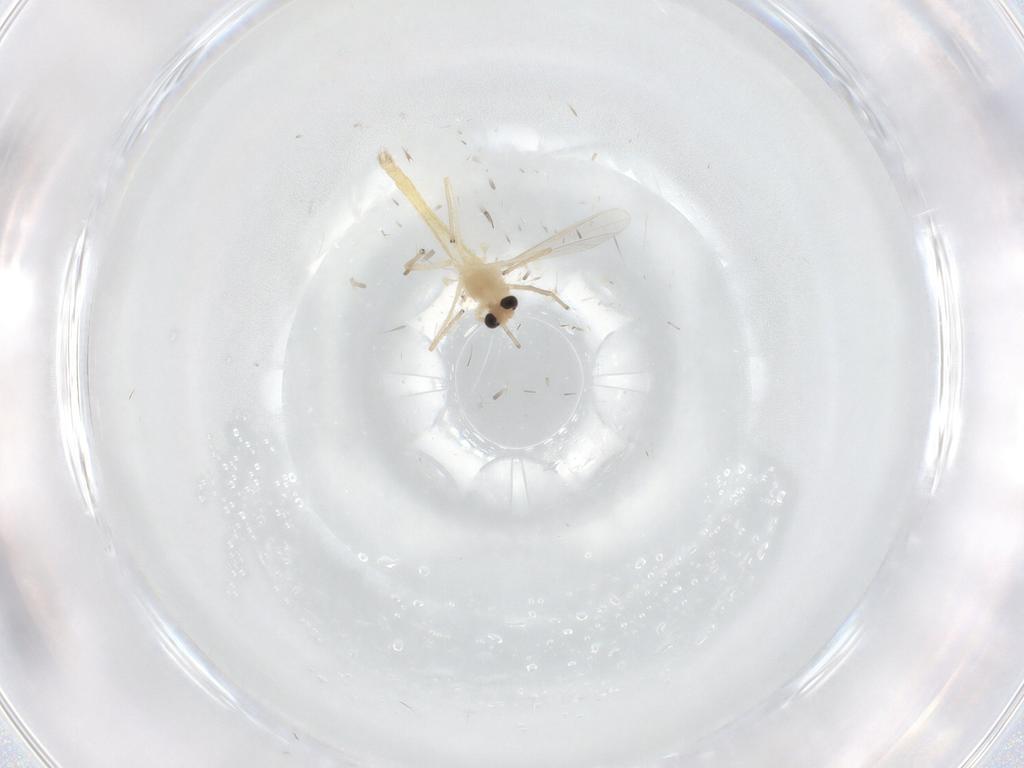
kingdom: Animalia
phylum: Arthropoda
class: Insecta
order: Diptera
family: Chironomidae
